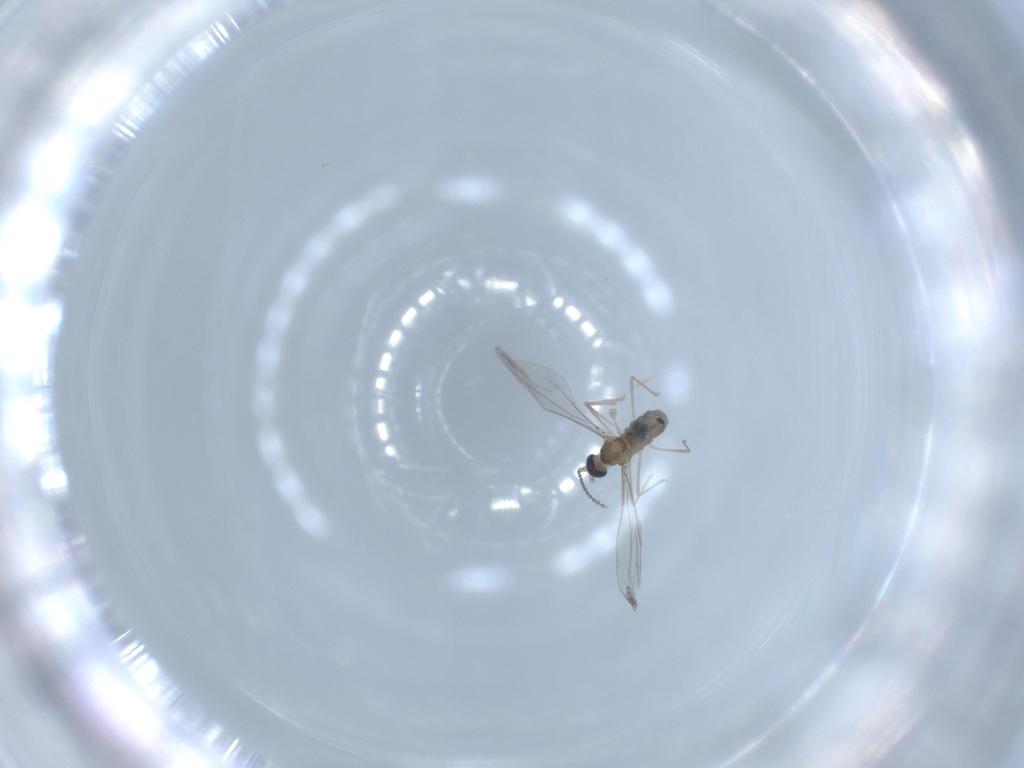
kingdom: Animalia
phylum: Arthropoda
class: Insecta
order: Diptera
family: Cecidomyiidae
